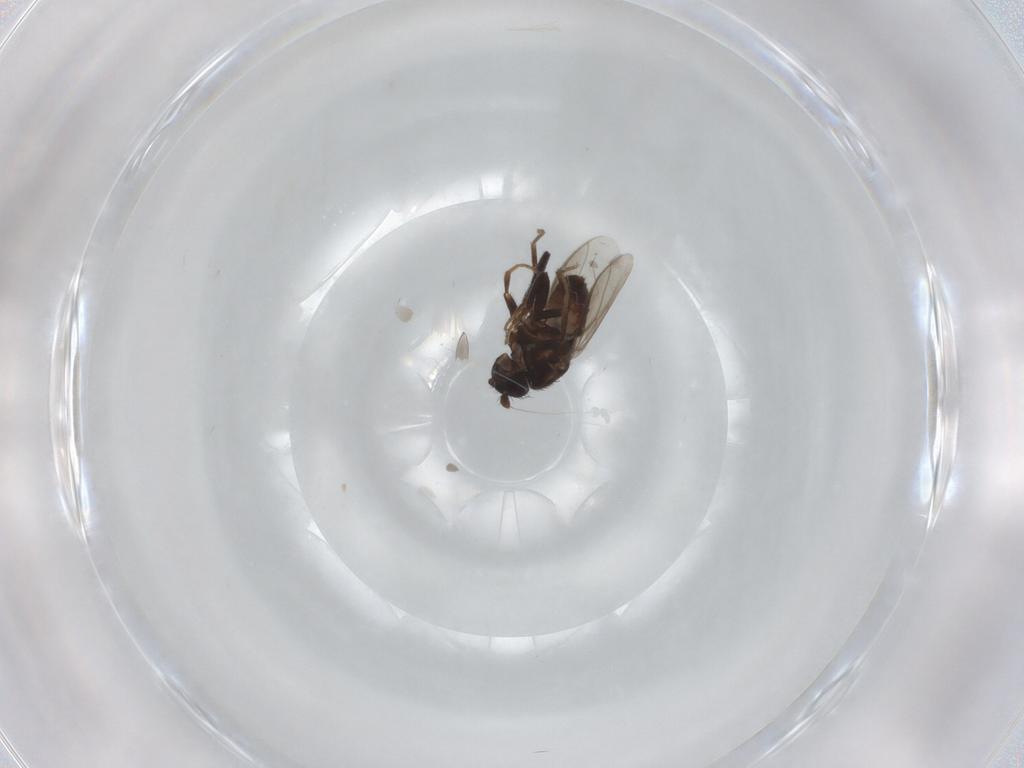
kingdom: Animalia
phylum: Arthropoda
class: Insecta
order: Diptera
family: Sphaeroceridae
